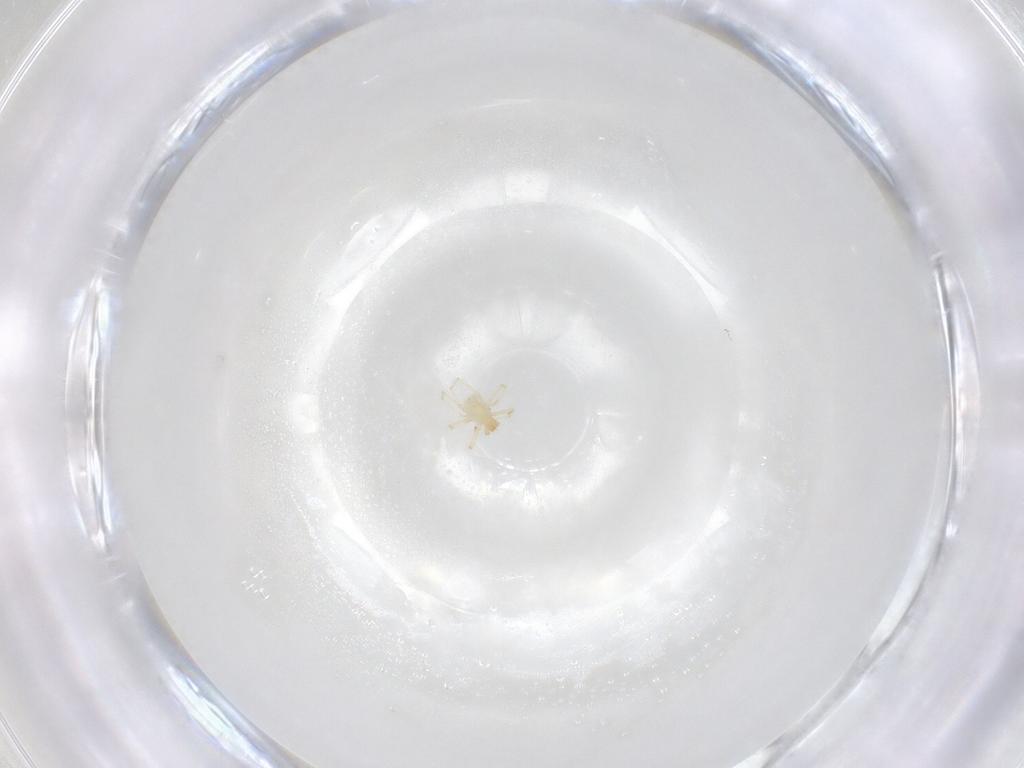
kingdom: Animalia
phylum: Arthropoda
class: Arachnida
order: Trombidiformes
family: Erythraeidae
